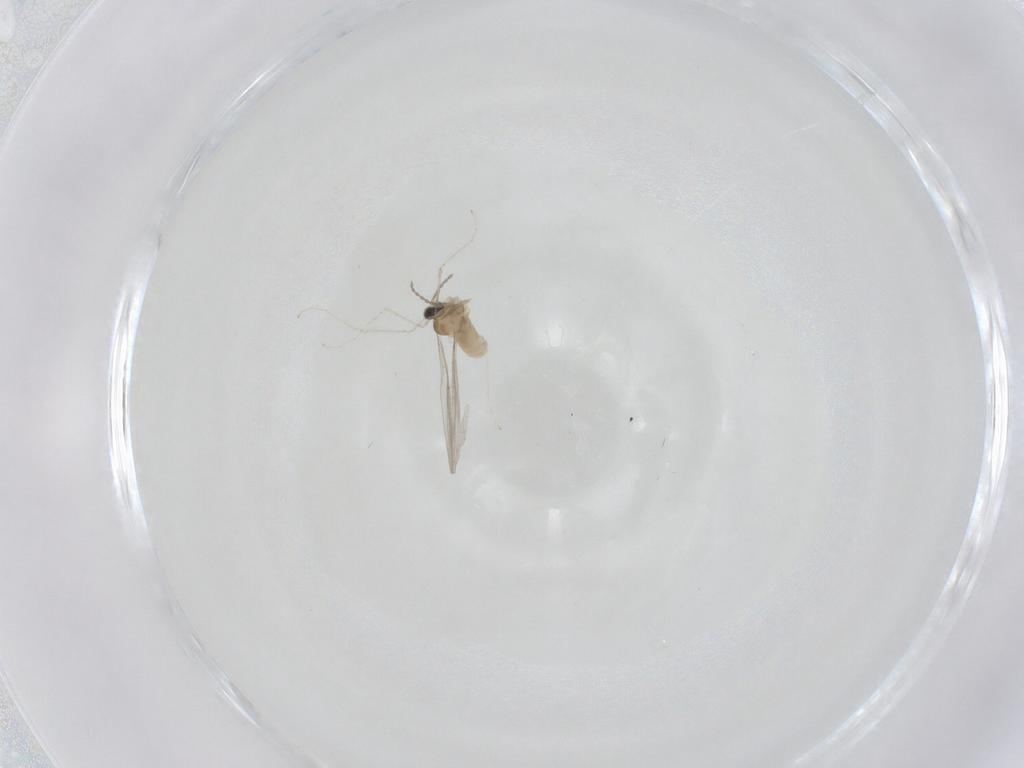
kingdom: Animalia
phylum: Arthropoda
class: Insecta
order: Diptera
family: Cecidomyiidae
